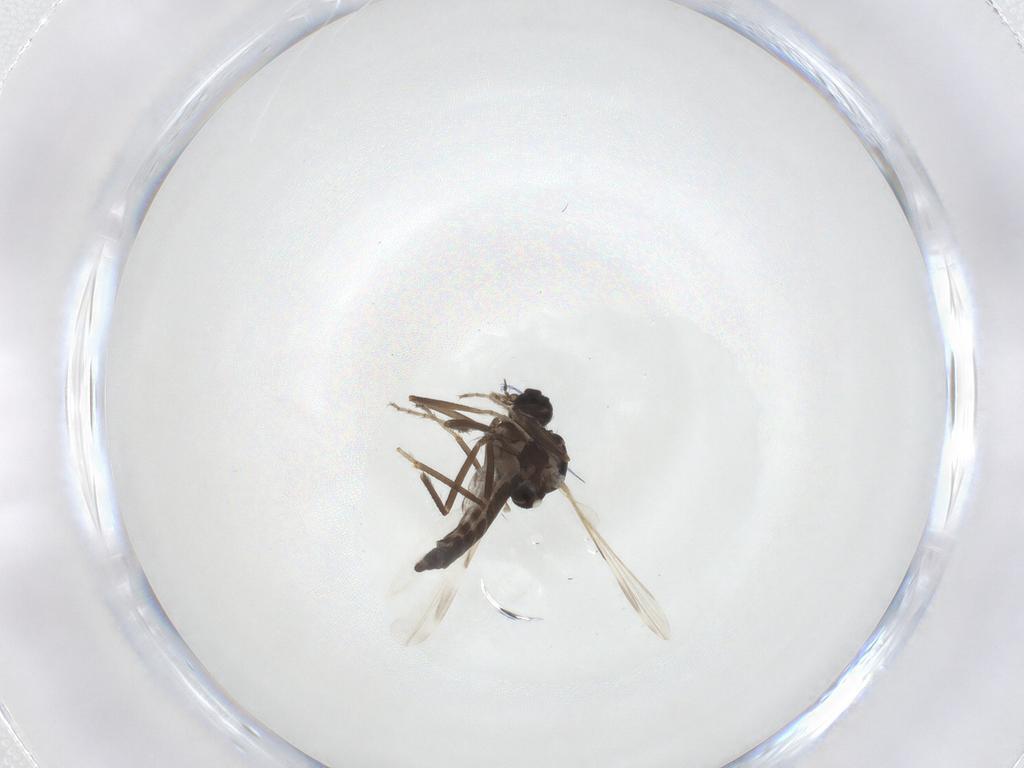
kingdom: Animalia
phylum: Arthropoda
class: Insecta
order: Diptera
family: Ceratopogonidae
